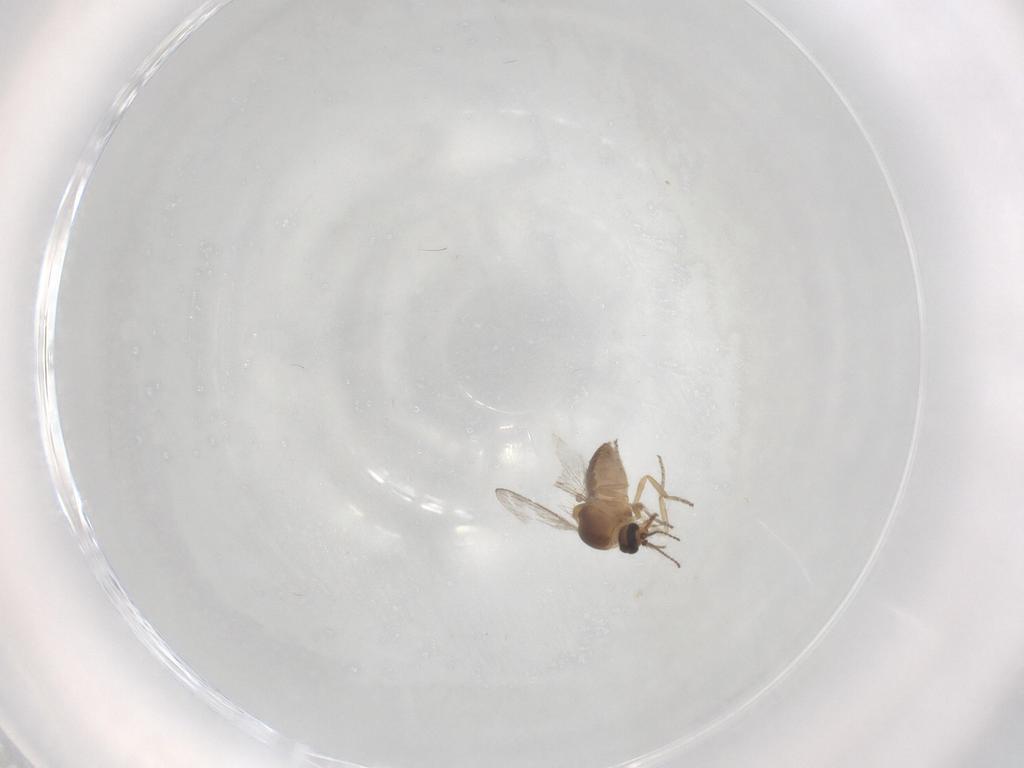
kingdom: Animalia
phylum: Arthropoda
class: Insecta
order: Diptera
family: Ceratopogonidae
